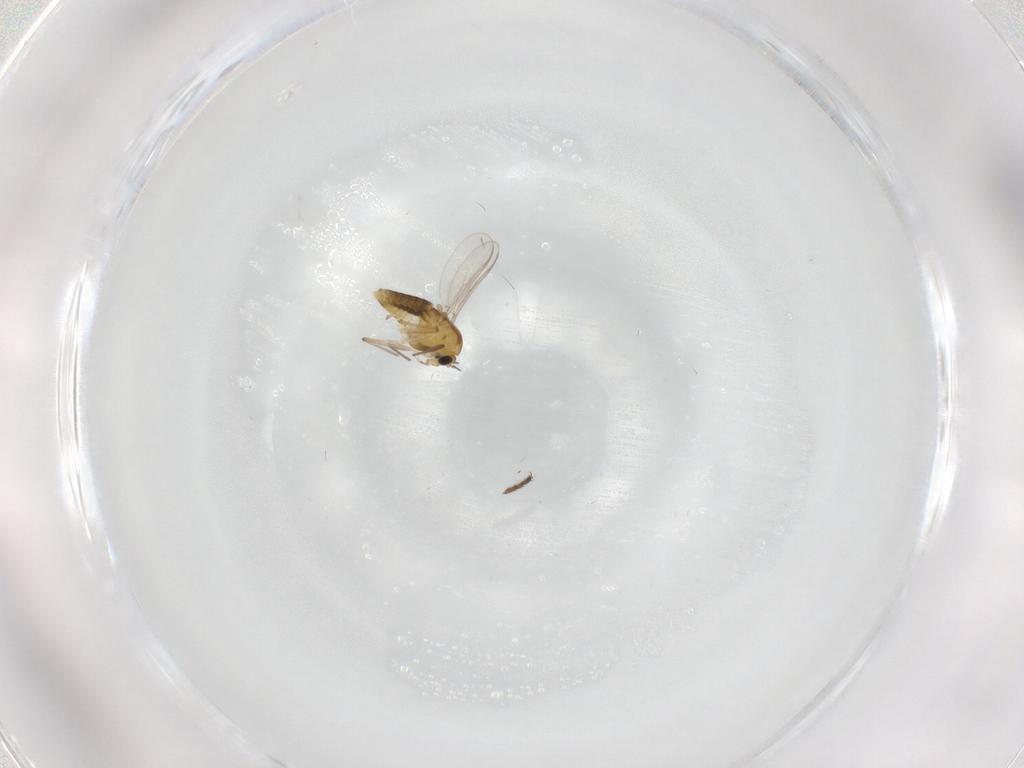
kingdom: Animalia
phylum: Arthropoda
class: Insecta
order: Diptera
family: Chironomidae
